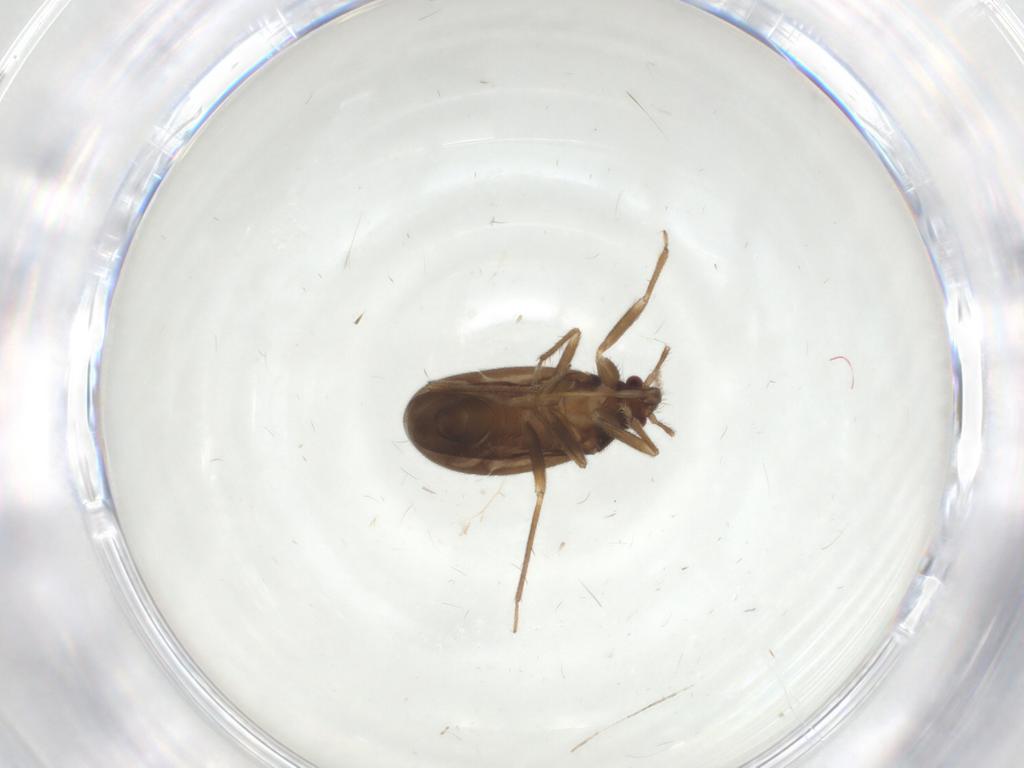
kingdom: Animalia
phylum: Arthropoda
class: Insecta
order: Hemiptera
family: Ceratocombidae
